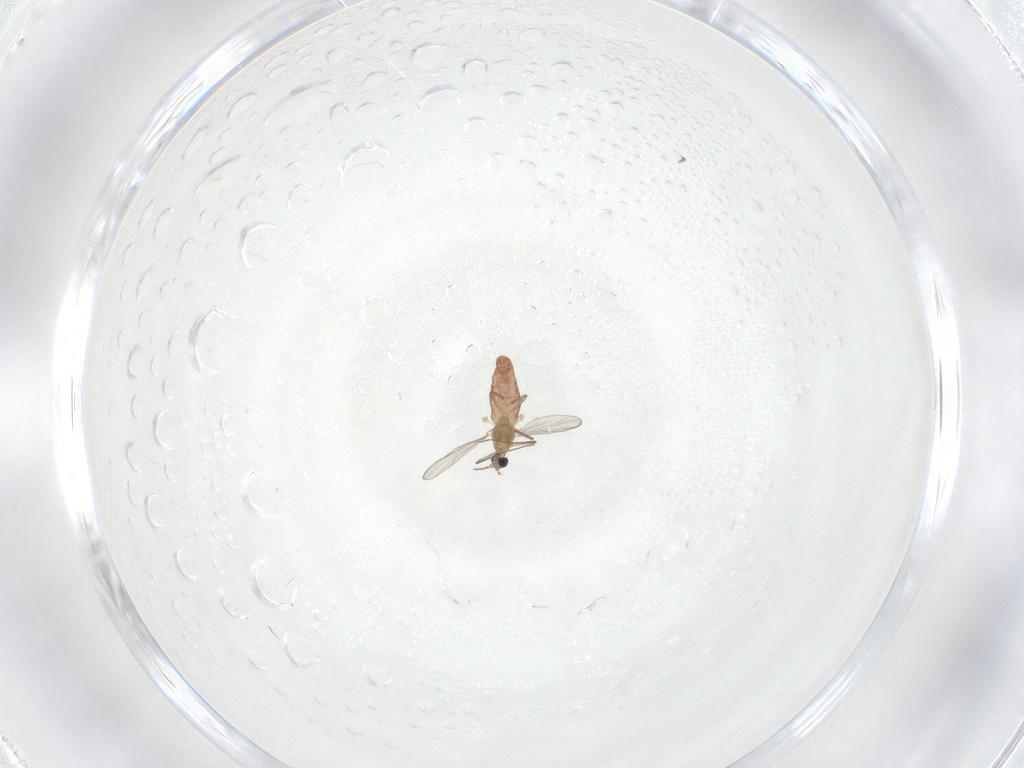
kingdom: Animalia
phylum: Arthropoda
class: Insecta
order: Diptera
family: Chironomidae
